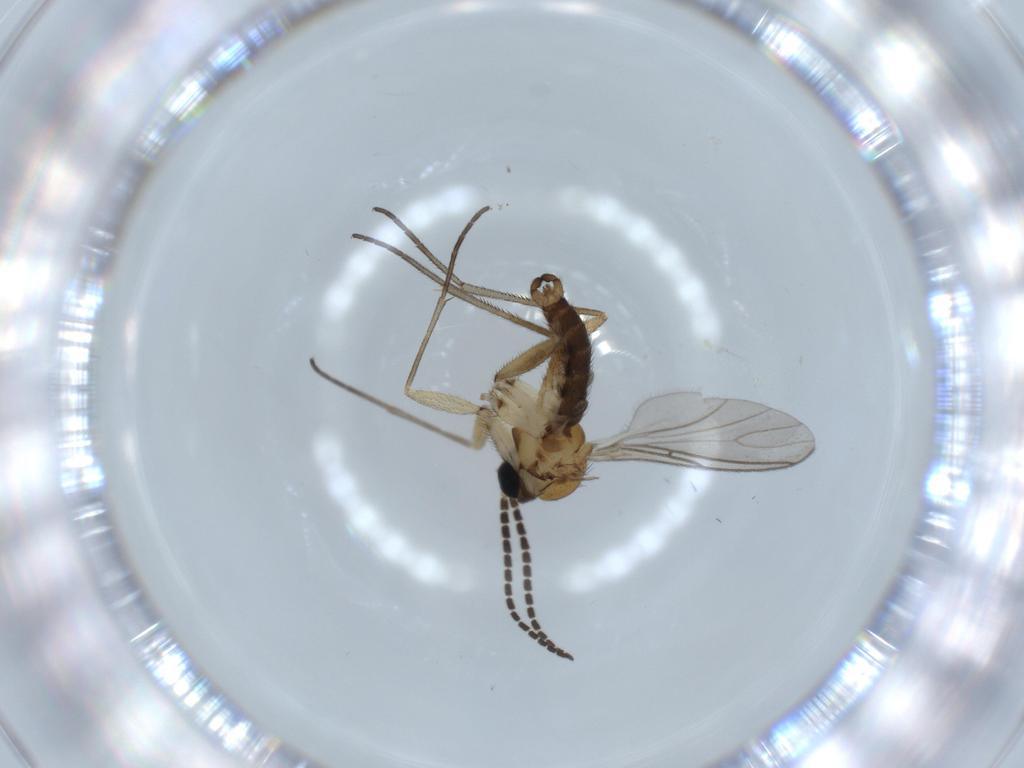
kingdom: Animalia
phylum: Arthropoda
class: Insecta
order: Diptera
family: Sciaridae
